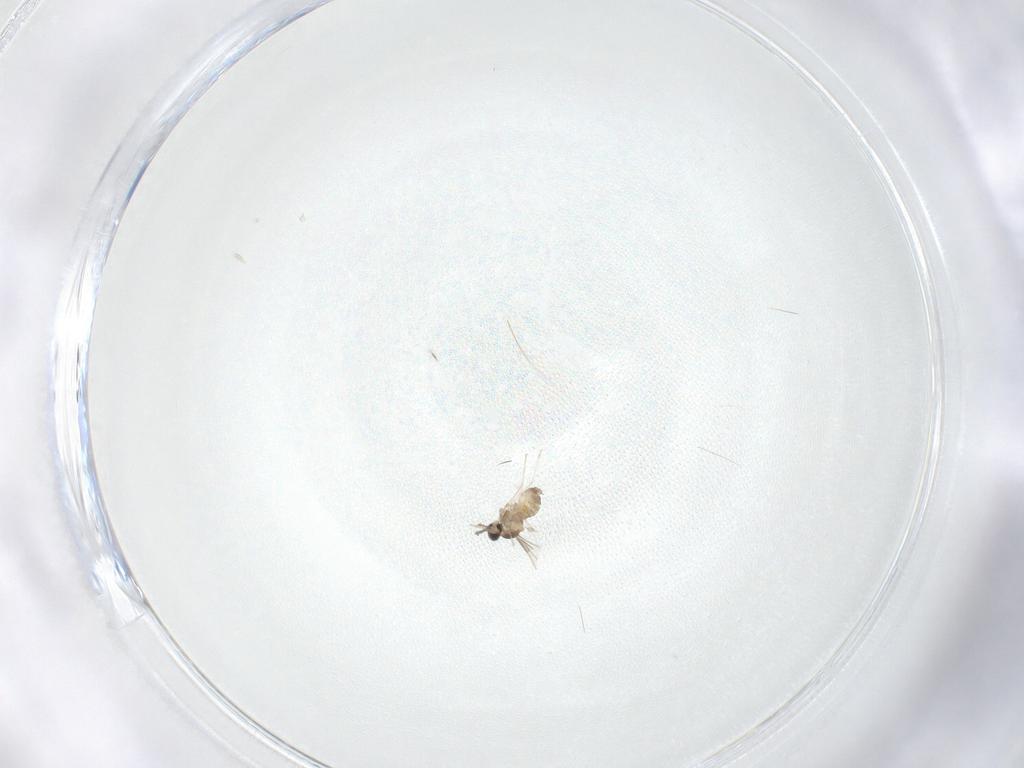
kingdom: Animalia
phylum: Arthropoda
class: Insecta
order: Diptera
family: Cecidomyiidae
